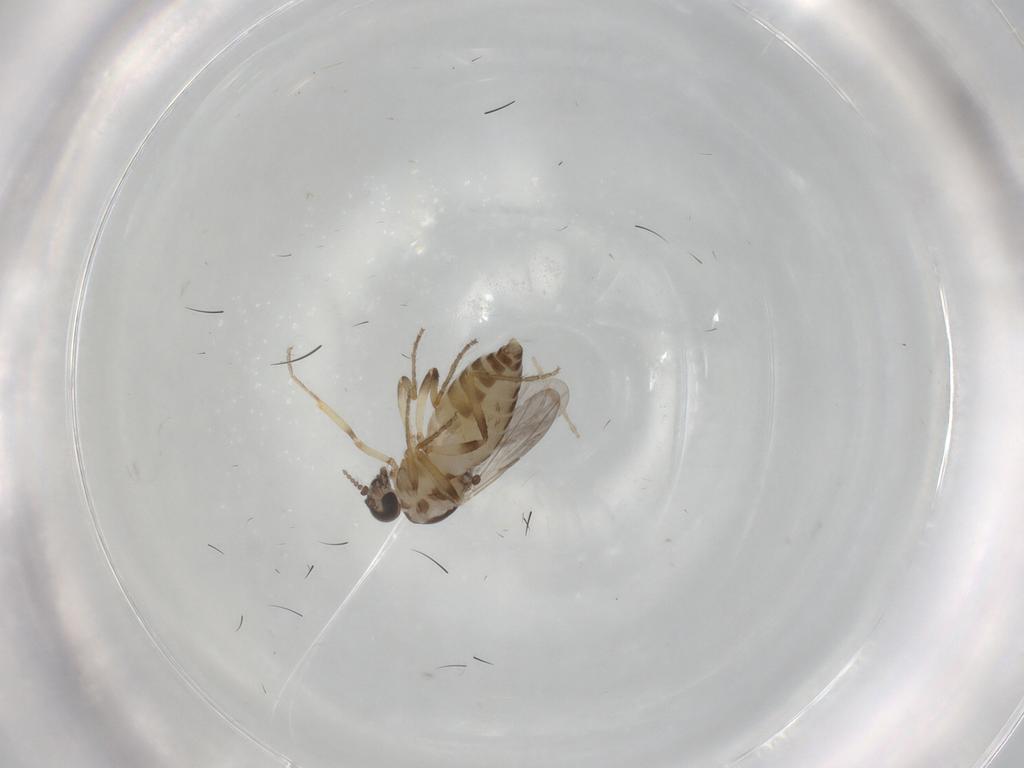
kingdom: Animalia
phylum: Arthropoda
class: Insecta
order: Diptera
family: Ceratopogonidae
